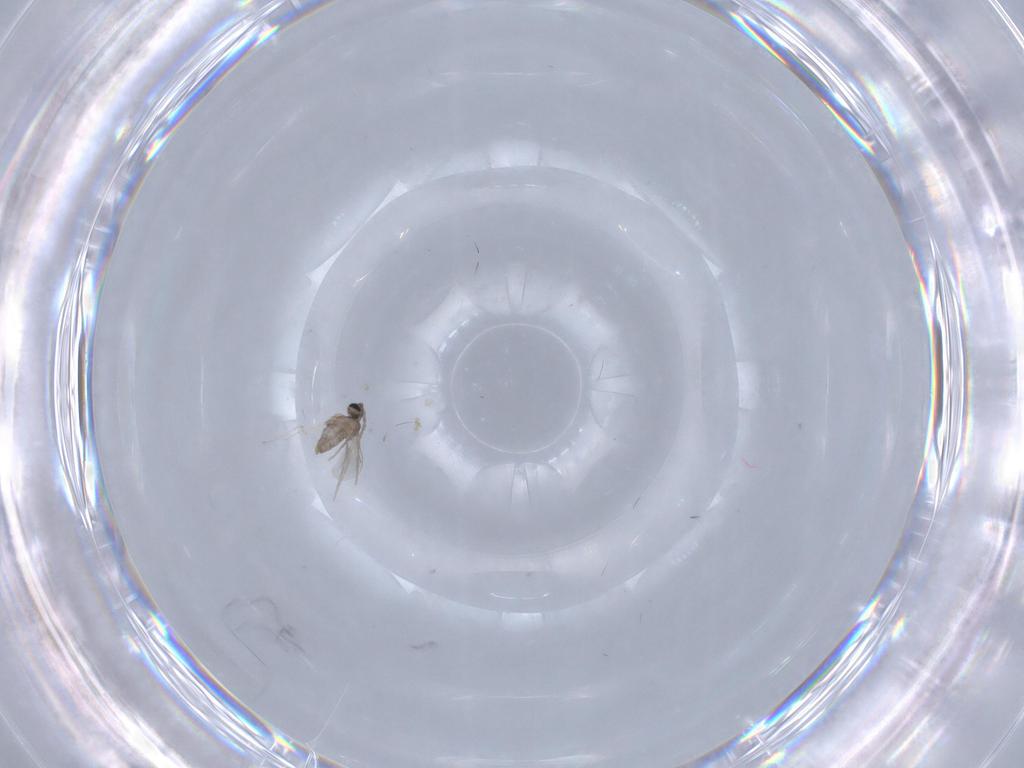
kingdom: Animalia
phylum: Arthropoda
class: Insecta
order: Diptera
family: Cecidomyiidae
